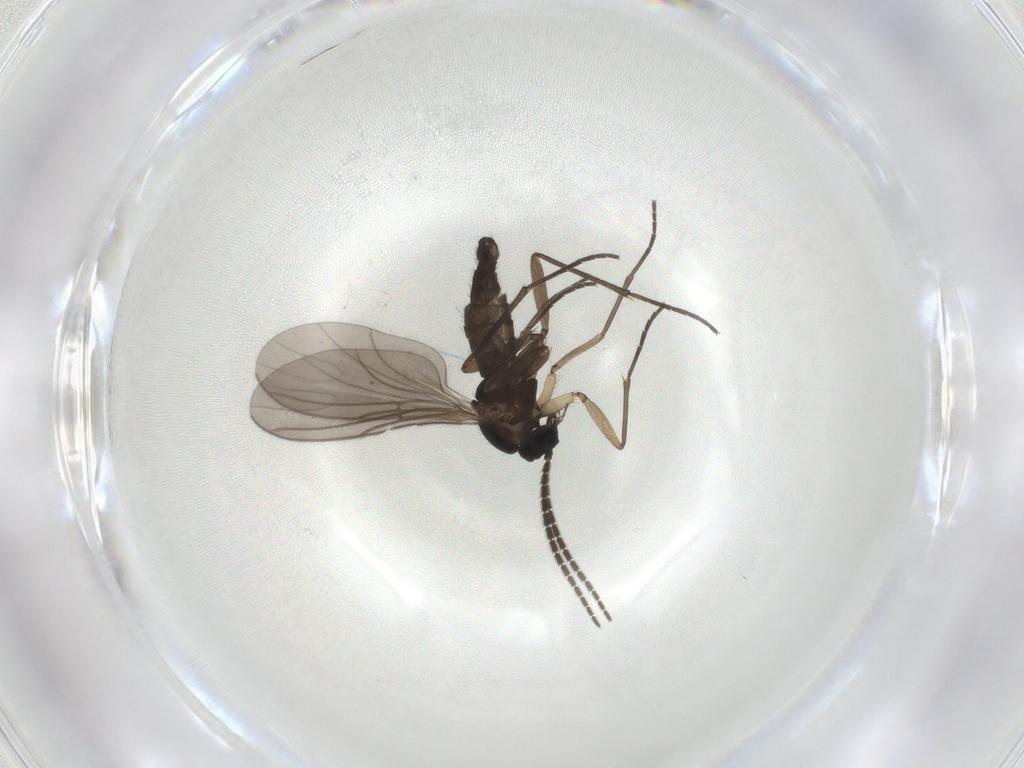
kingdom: Animalia
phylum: Arthropoda
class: Insecta
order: Diptera
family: Sciaridae
